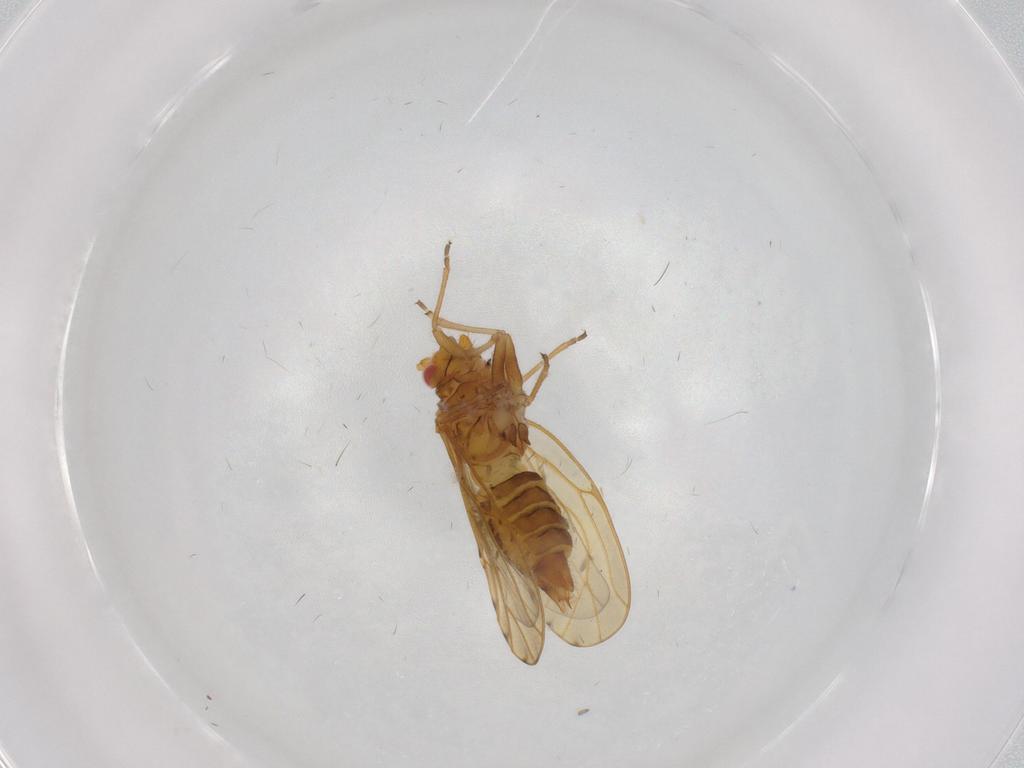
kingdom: Animalia
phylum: Arthropoda
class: Insecta
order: Hemiptera
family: Psylloidea_incertae_sedis
